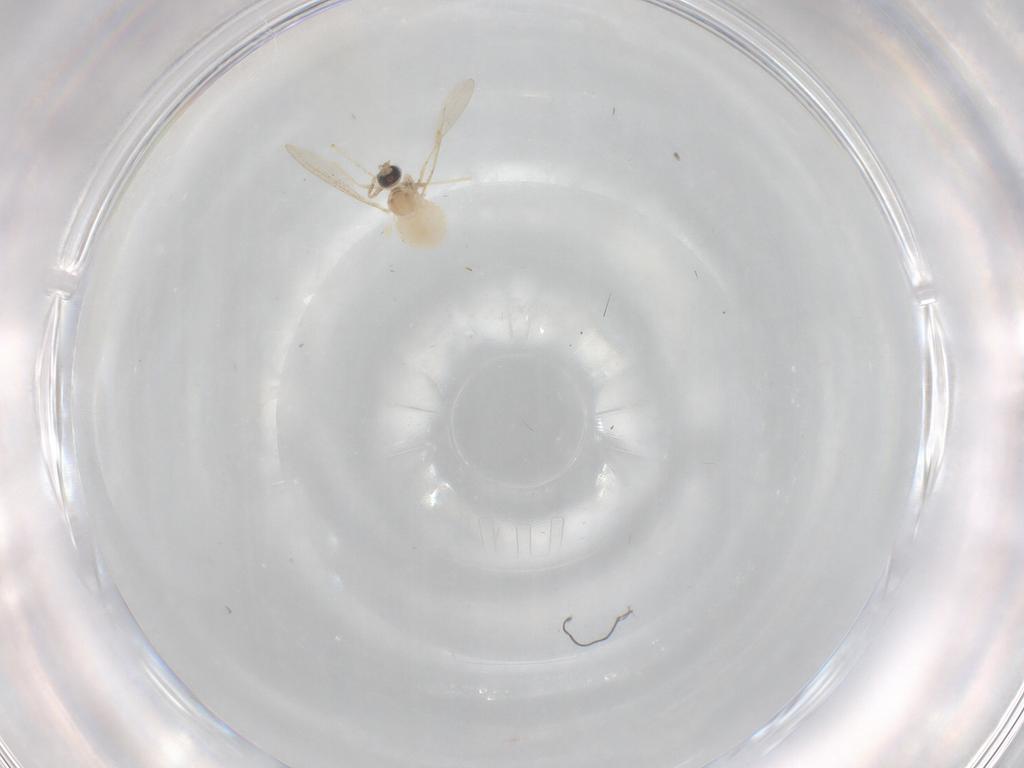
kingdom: Animalia
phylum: Arthropoda
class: Insecta
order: Diptera
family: Cecidomyiidae
